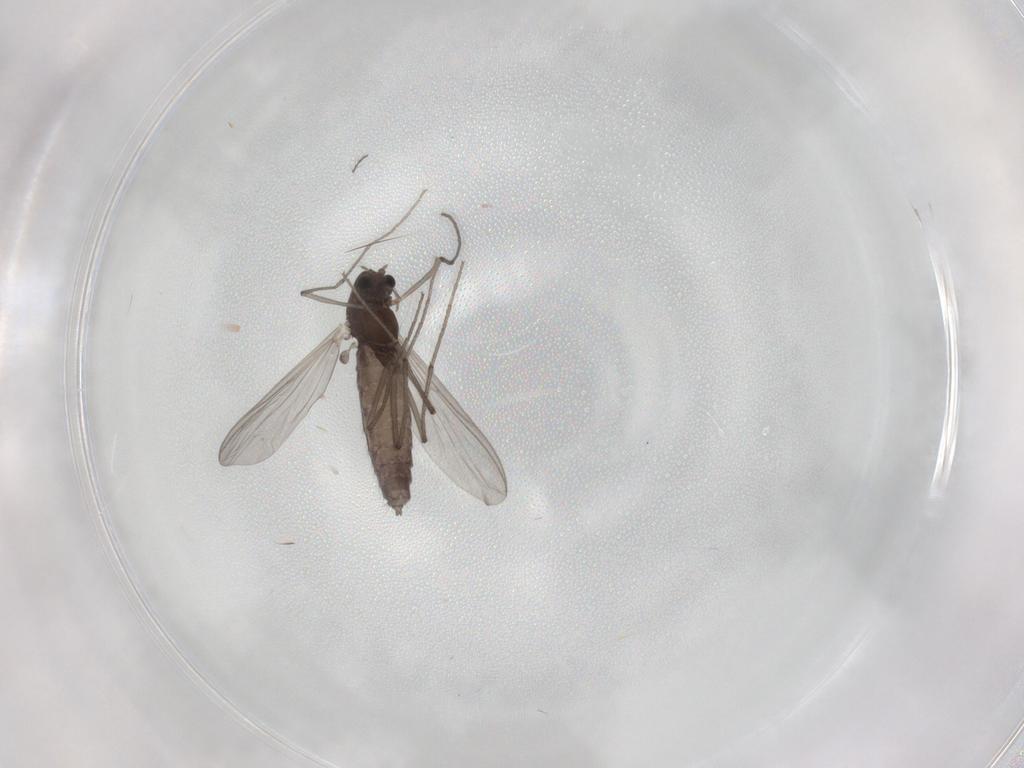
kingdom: Animalia
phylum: Arthropoda
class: Insecta
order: Diptera
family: Chironomidae
